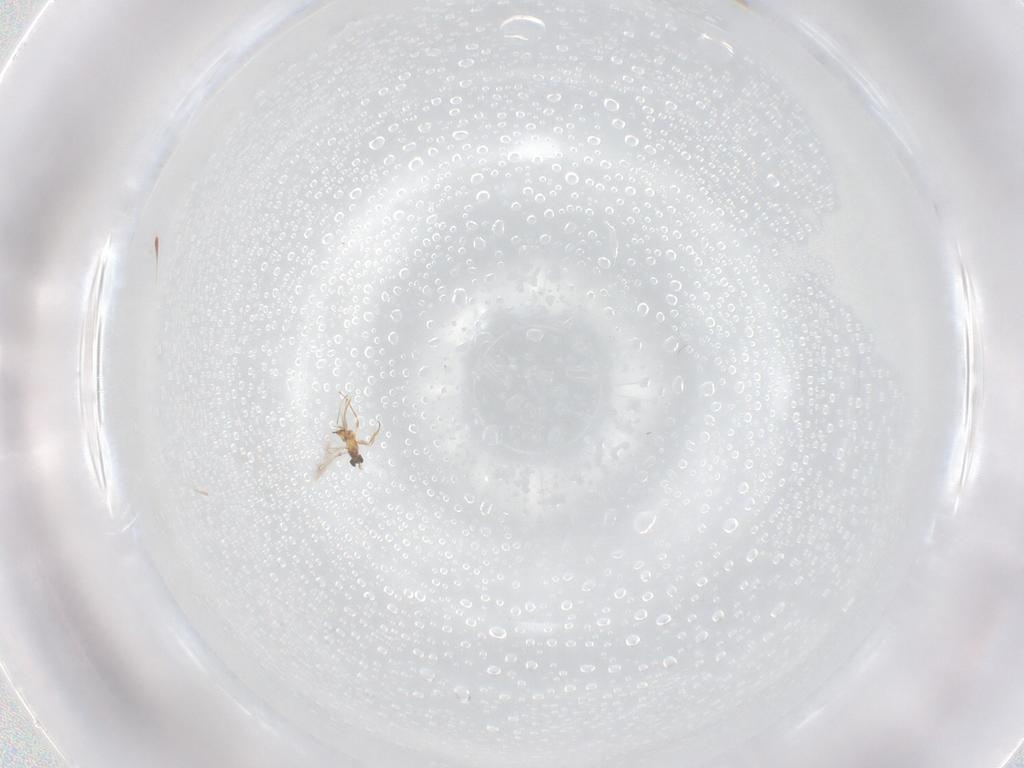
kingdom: Animalia
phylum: Arthropoda
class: Insecta
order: Hymenoptera
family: Mymaridae
